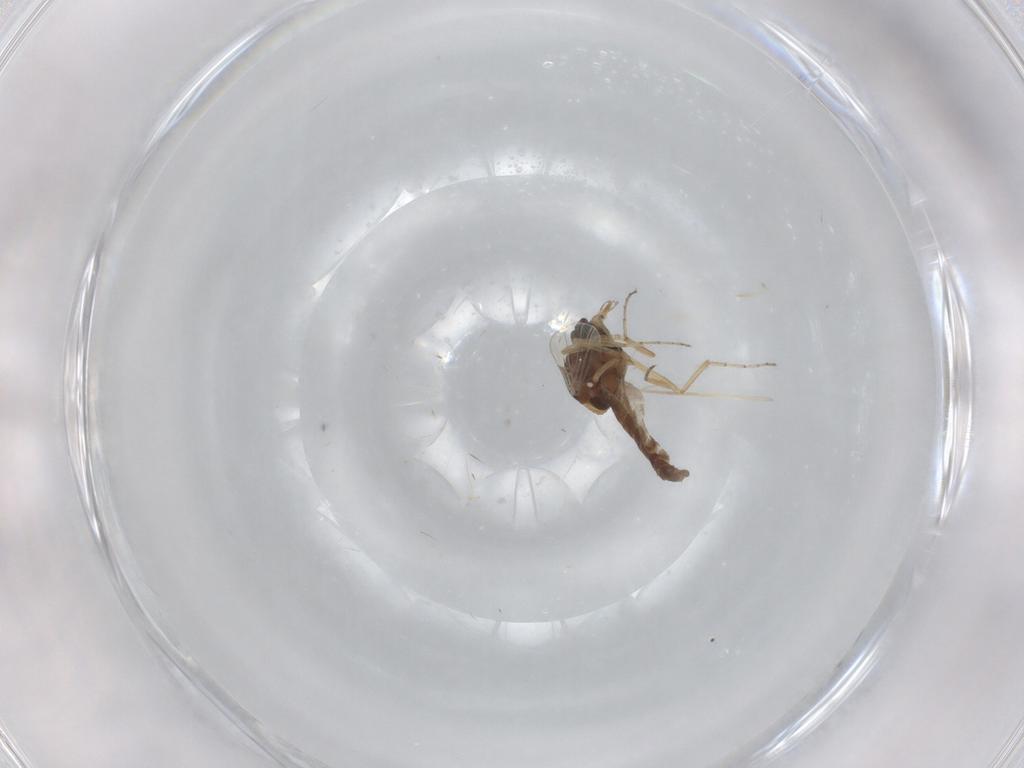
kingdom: Animalia
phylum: Arthropoda
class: Insecta
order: Diptera
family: Ceratopogonidae
